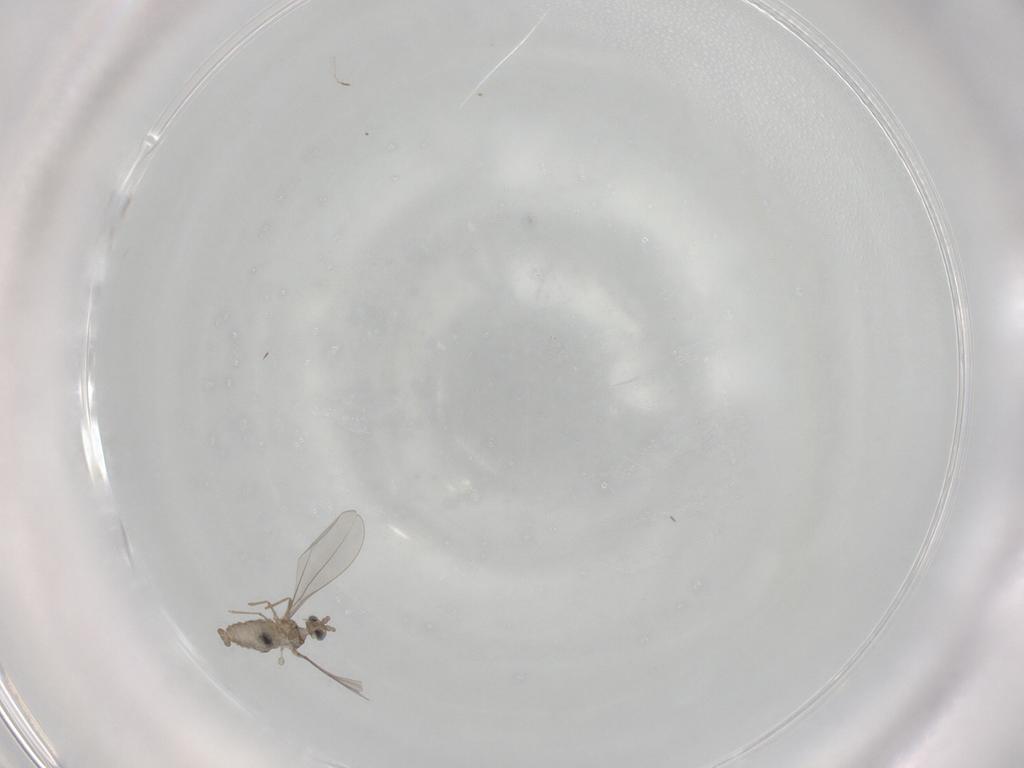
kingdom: Animalia
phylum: Arthropoda
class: Insecta
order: Diptera
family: Cecidomyiidae
